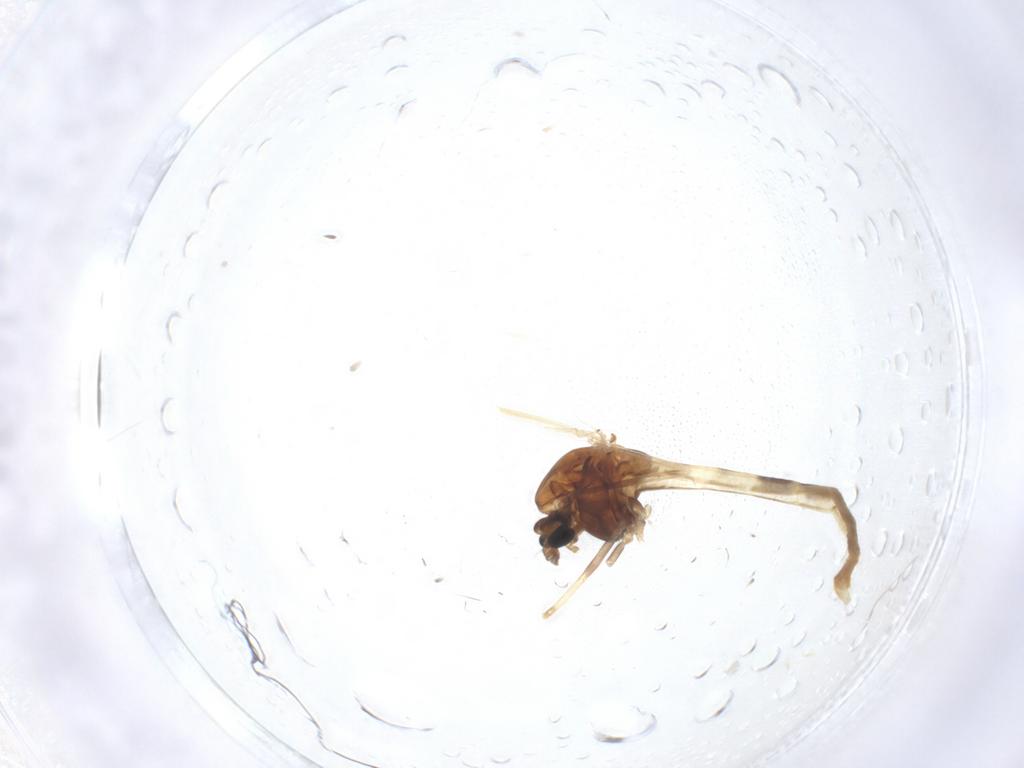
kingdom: Animalia
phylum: Arthropoda
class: Insecta
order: Diptera
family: Chironomidae
